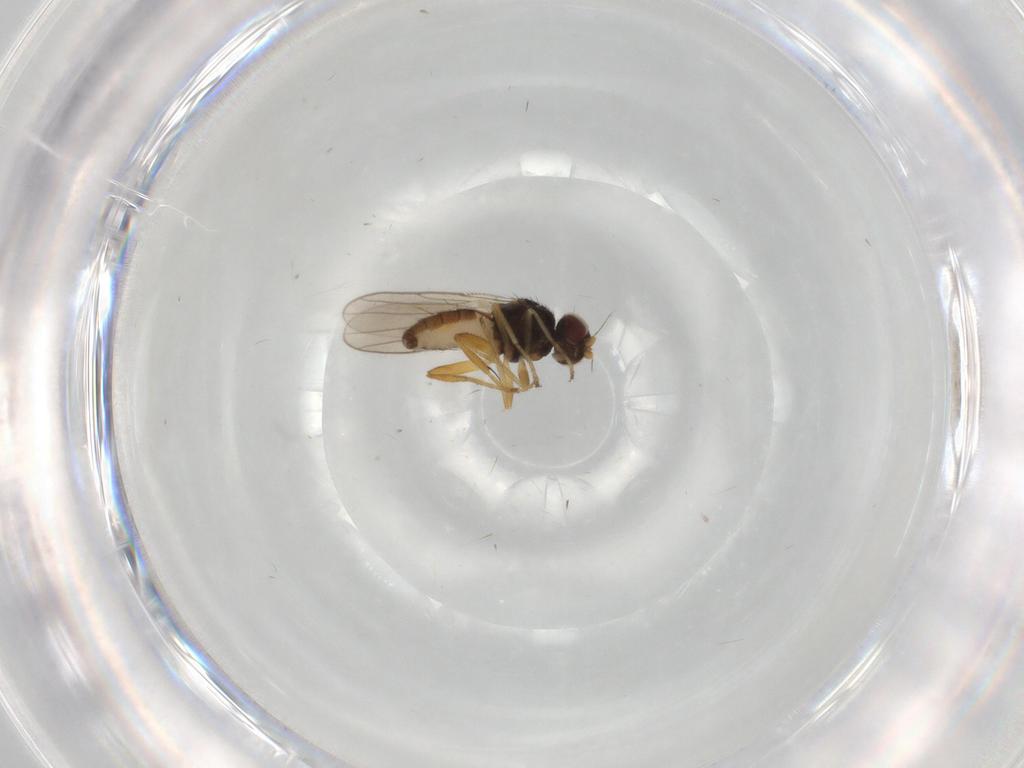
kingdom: Animalia
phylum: Arthropoda
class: Insecta
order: Diptera
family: Chloropidae
